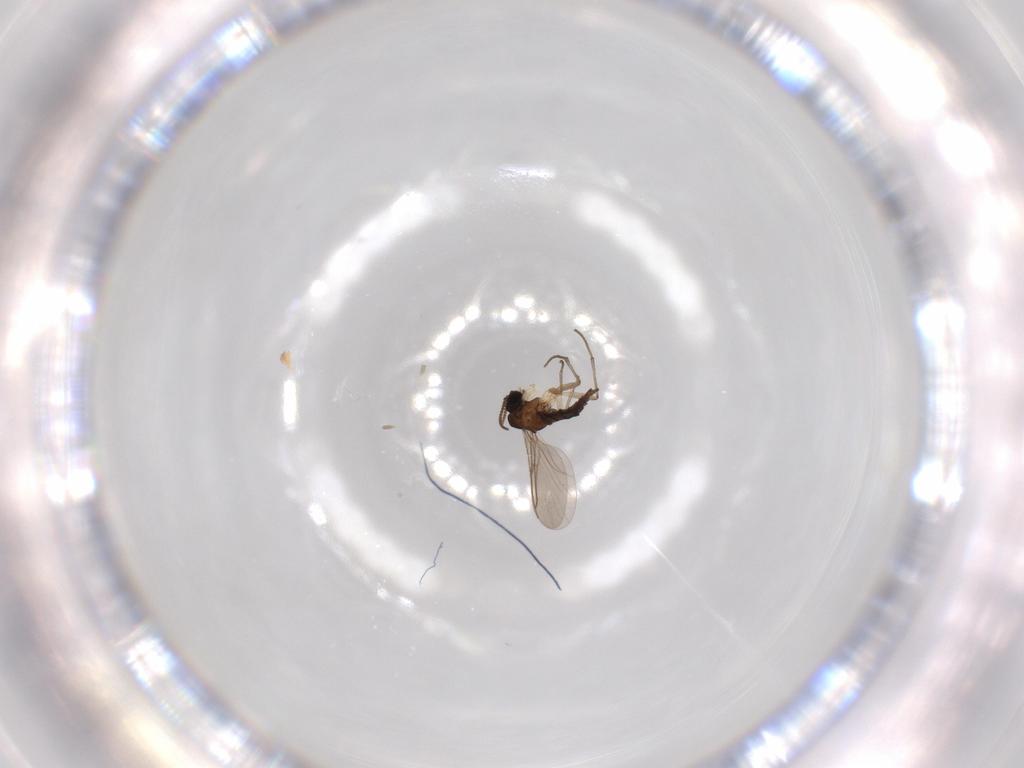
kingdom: Animalia
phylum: Arthropoda
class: Insecta
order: Diptera
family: Sciaridae
